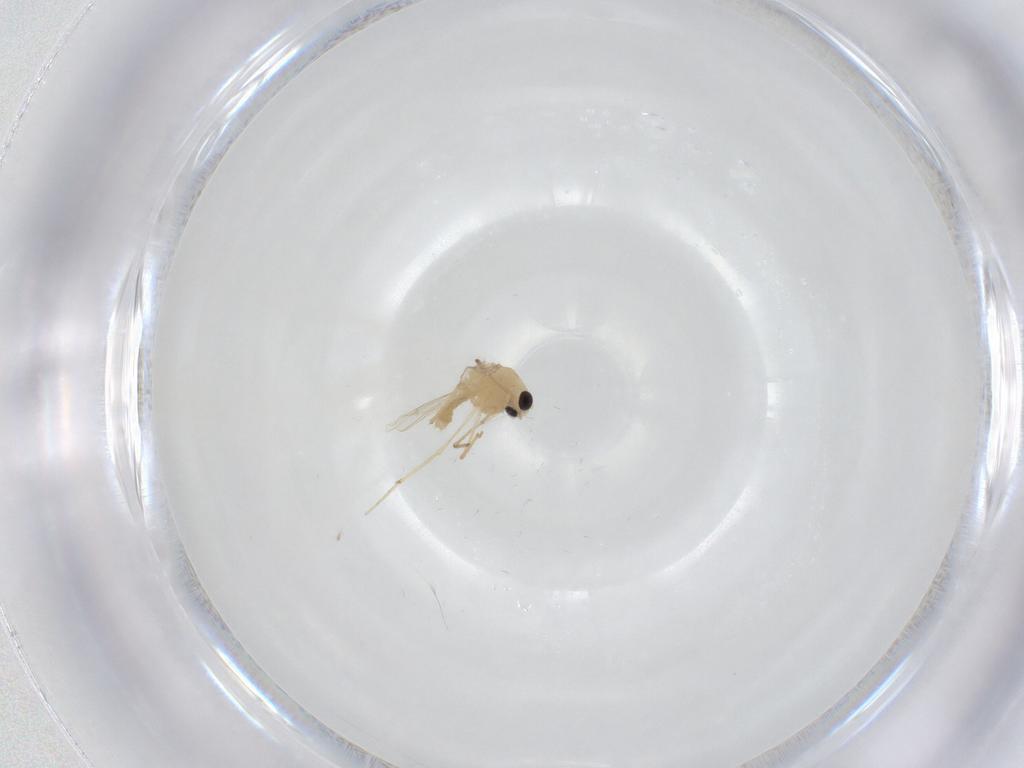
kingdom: Animalia
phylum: Arthropoda
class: Insecta
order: Diptera
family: Chironomidae
